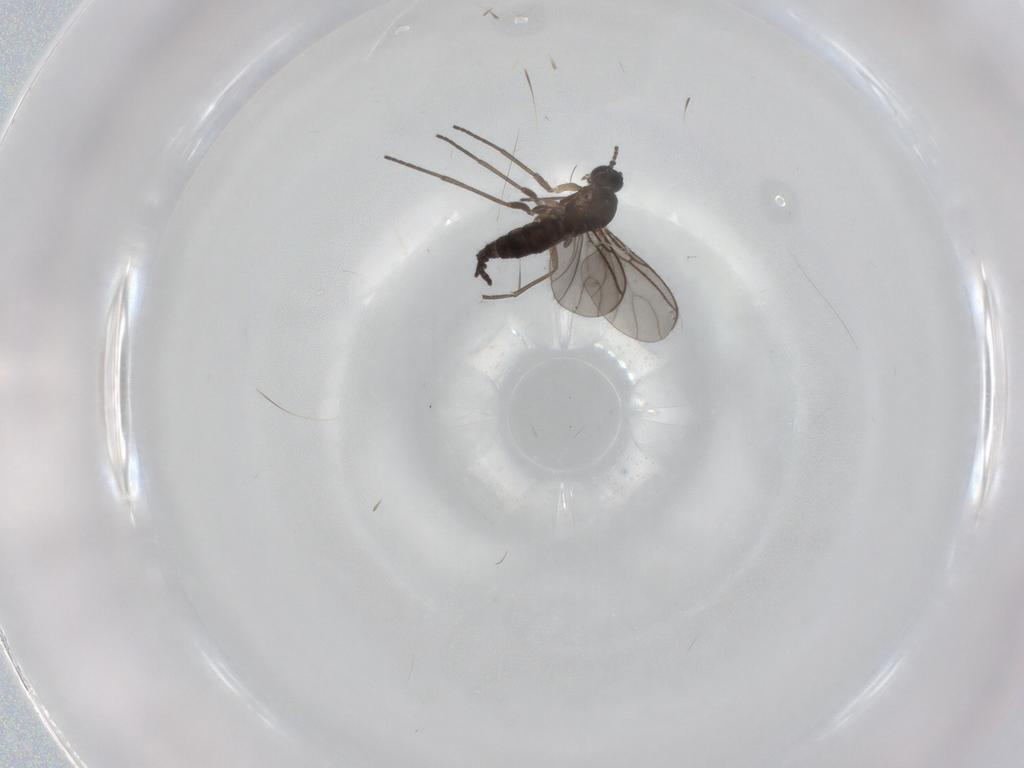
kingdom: Animalia
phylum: Arthropoda
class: Insecta
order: Diptera
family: Sciaridae
